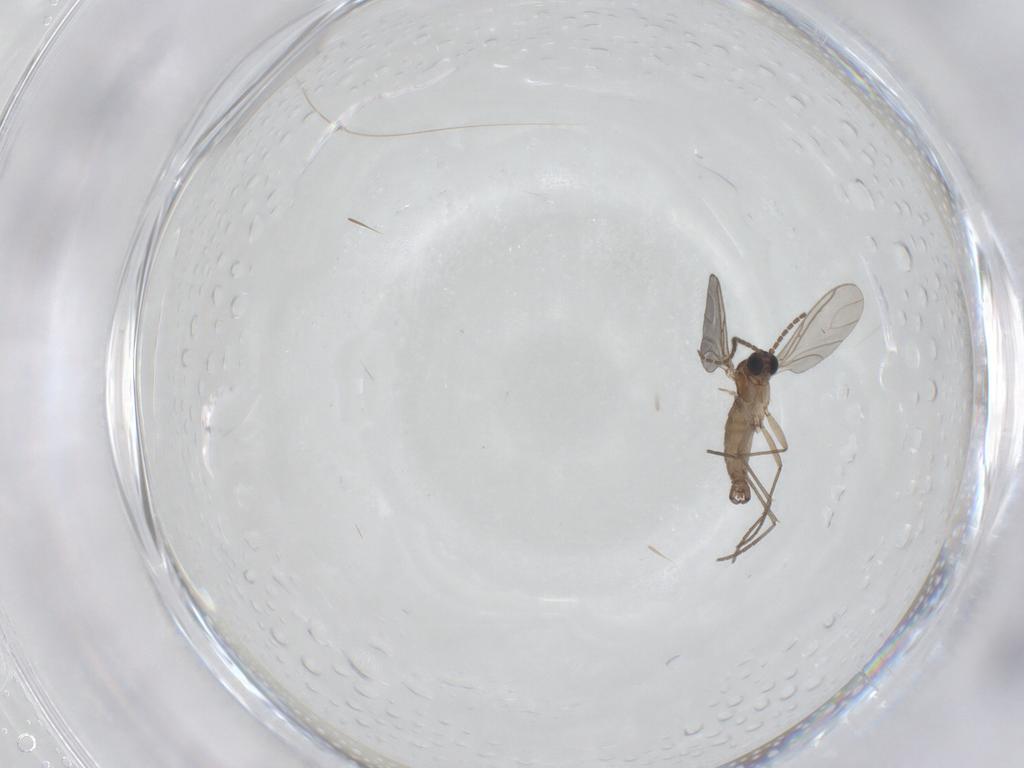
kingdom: Animalia
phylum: Arthropoda
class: Insecta
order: Diptera
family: Sciaridae
